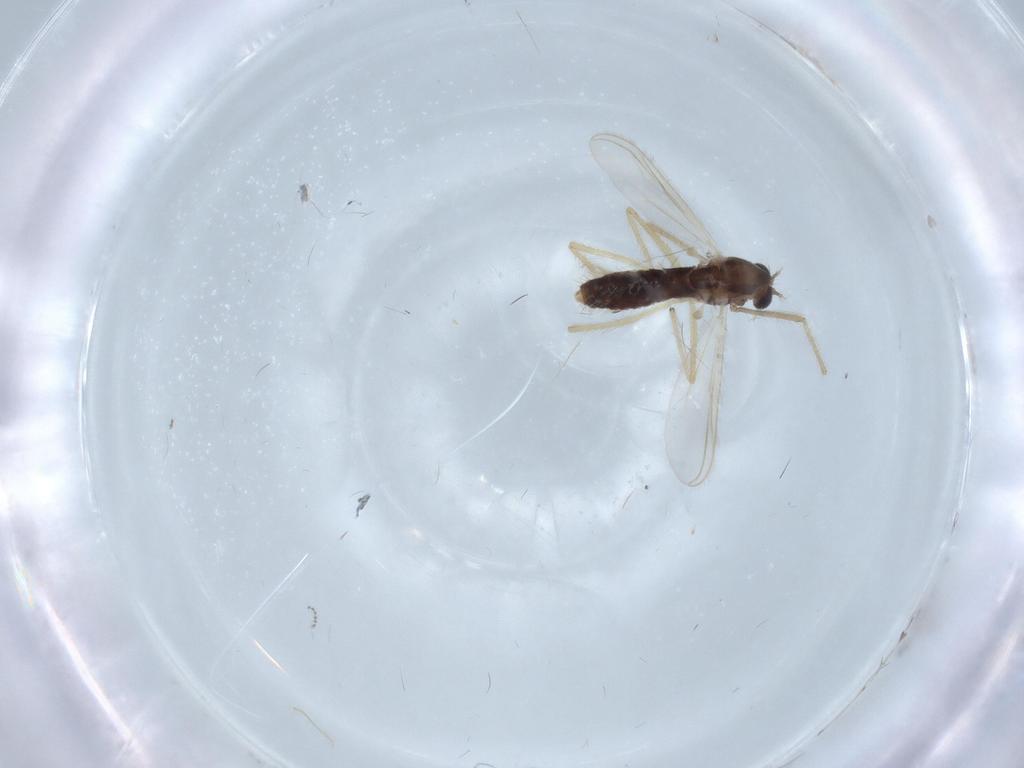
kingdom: Animalia
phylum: Arthropoda
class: Insecta
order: Diptera
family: Chironomidae
